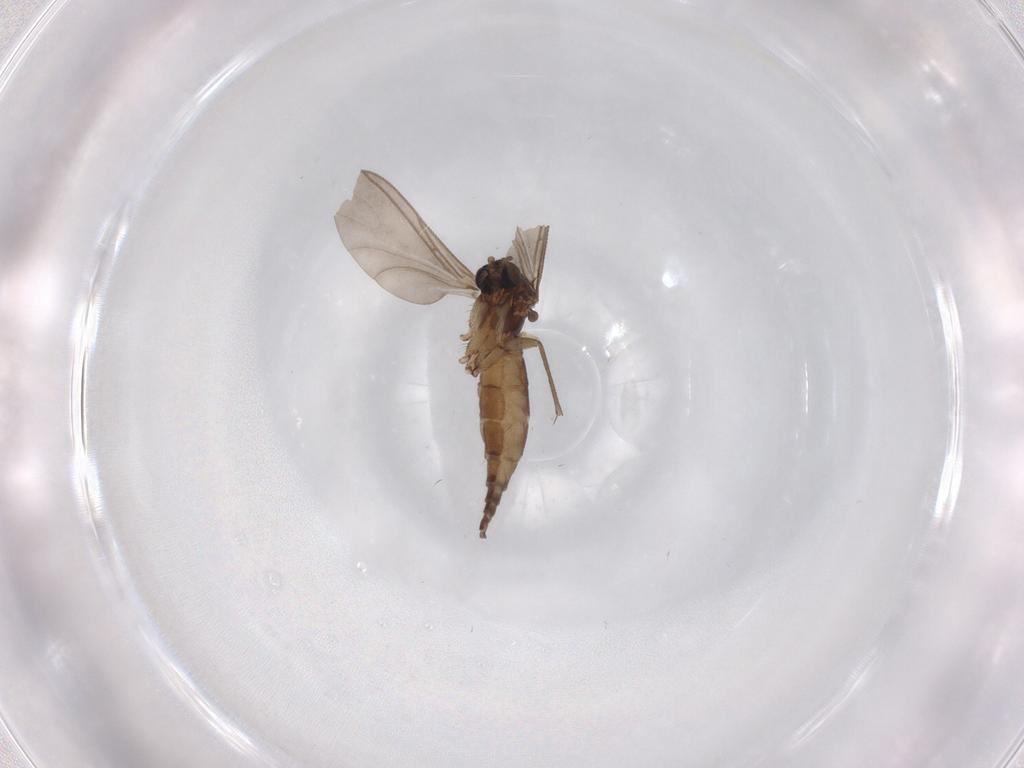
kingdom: Animalia
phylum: Arthropoda
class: Insecta
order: Diptera
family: Sciaridae
